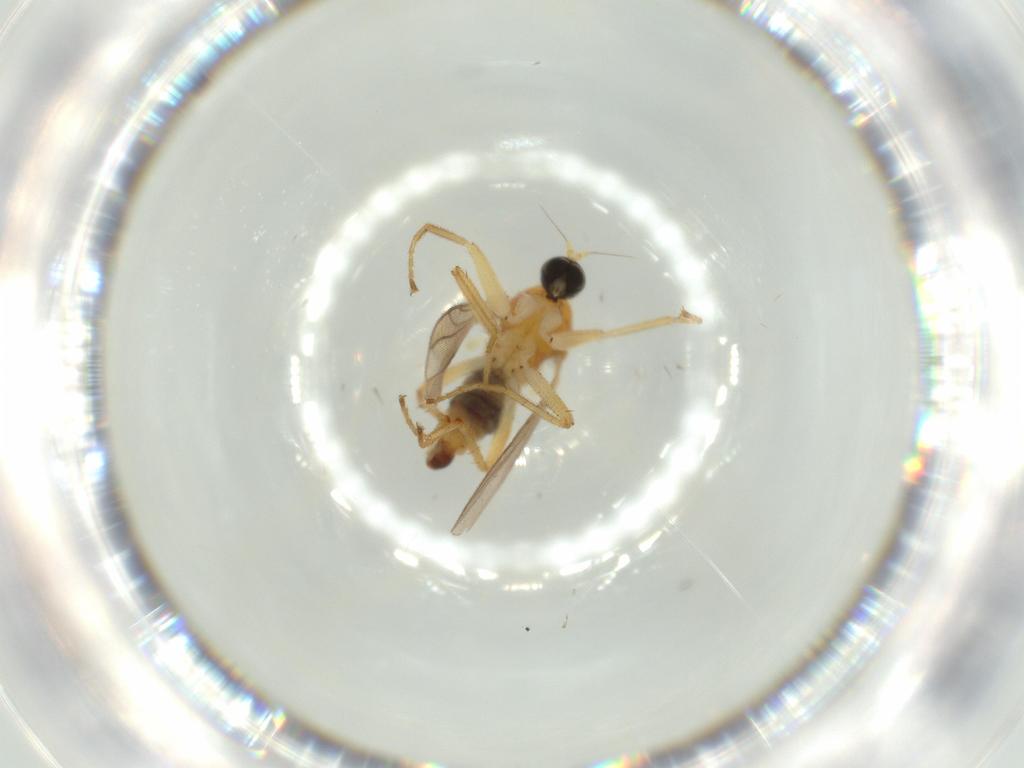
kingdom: Animalia
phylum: Arthropoda
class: Insecta
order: Diptera
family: Hybotidae
